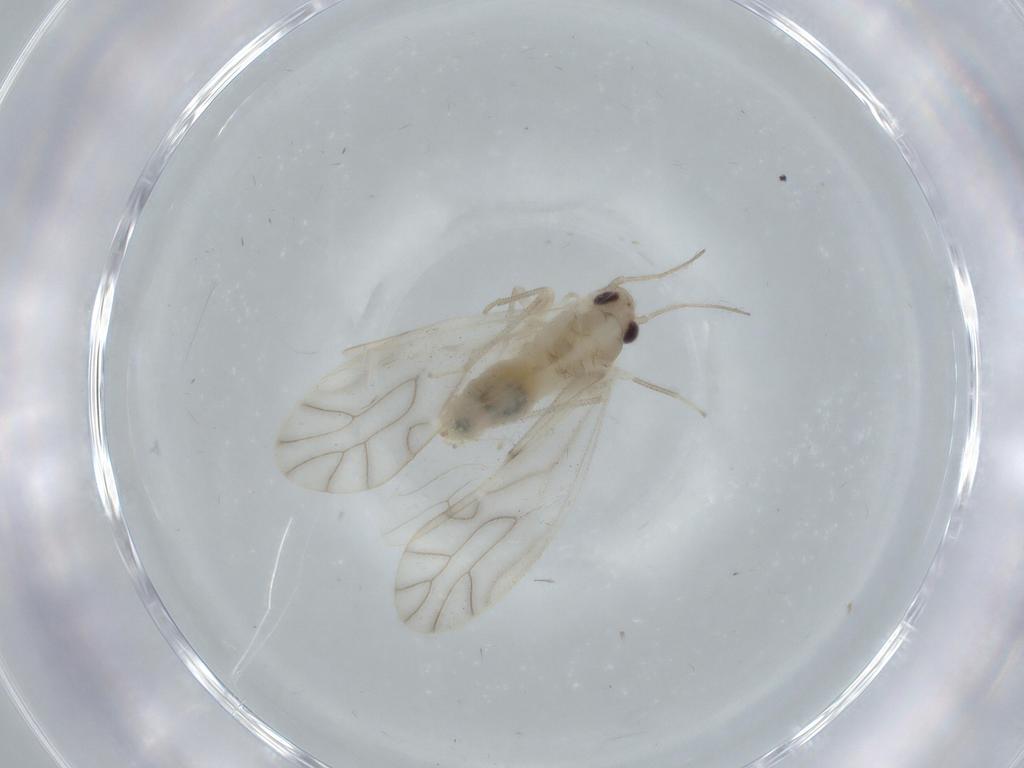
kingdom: Animalia
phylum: Arthropoda
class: Insecta
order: Psocodea
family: Caeciliusidae
